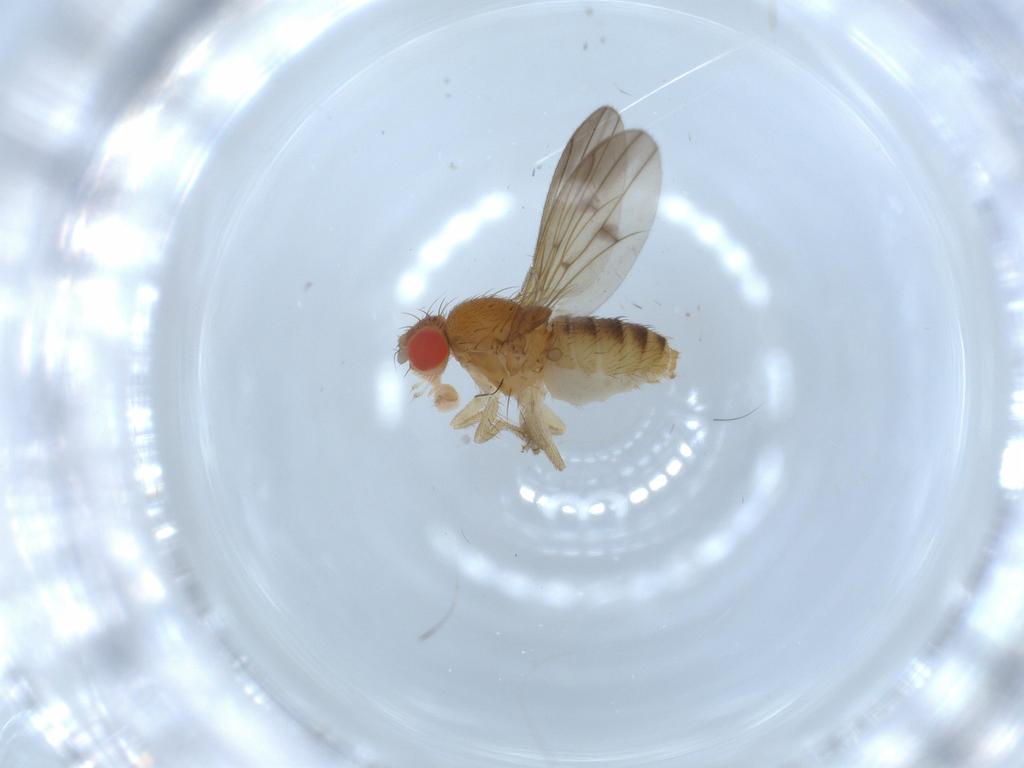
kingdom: Animalia
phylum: Arthropoda
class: Insecta
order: Diptera
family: Drosophilidae
